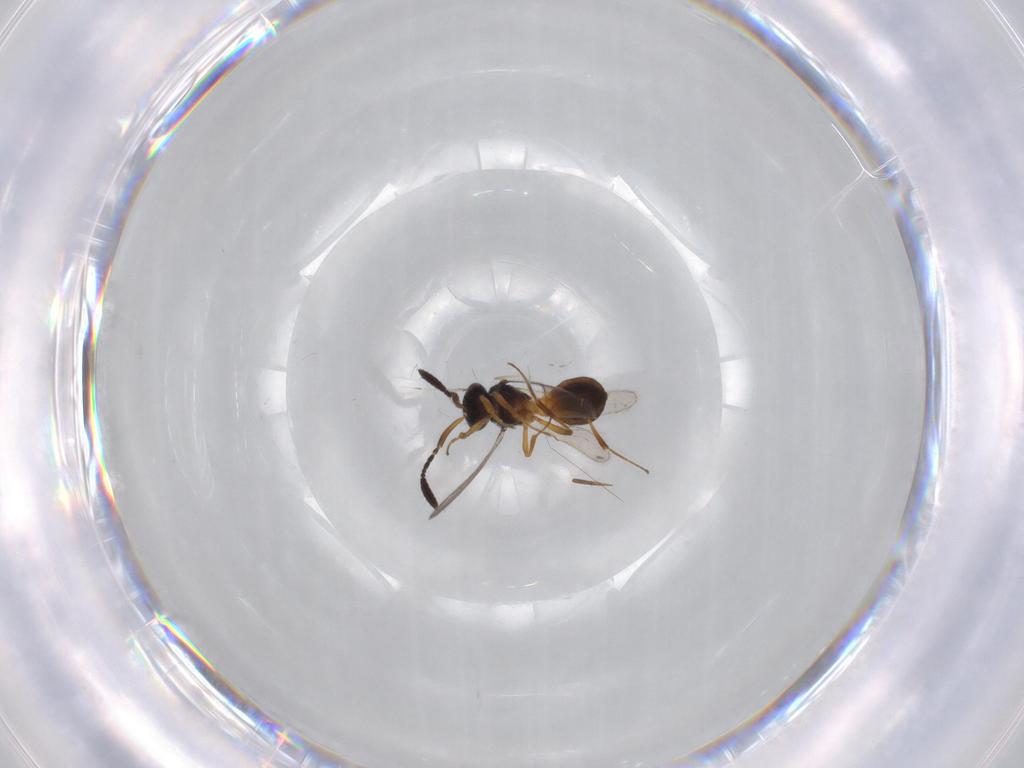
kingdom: Animalia
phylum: Arthropoda
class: Insecta
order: Hymenoptera
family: Scelionidae
